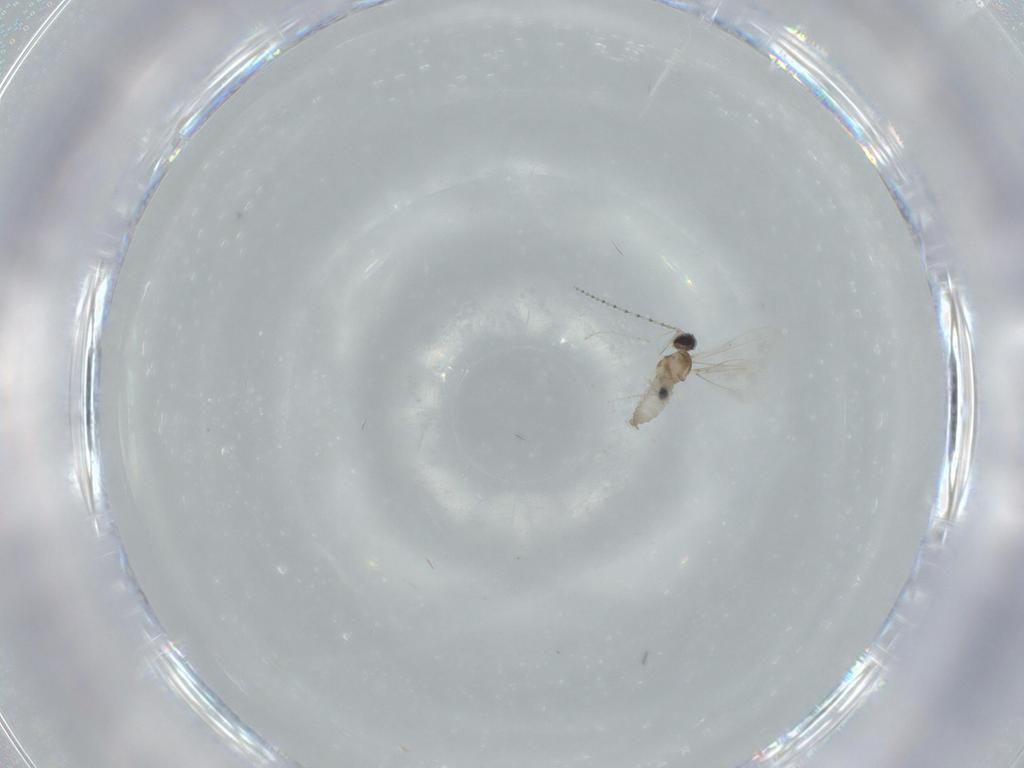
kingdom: Animalia
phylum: Arthropoda
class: Insecta
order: Diptera
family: Cecidomyiidae
